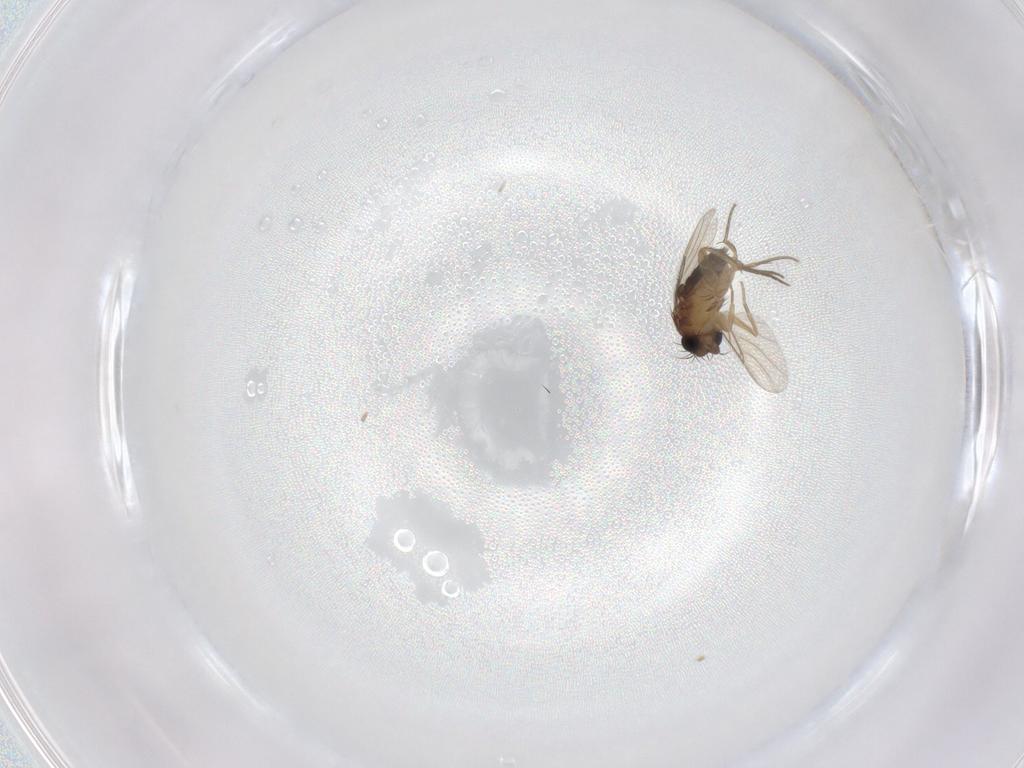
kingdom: Animalia
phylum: Arthropoda
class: Insecta
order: Diptera
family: Phoridae
